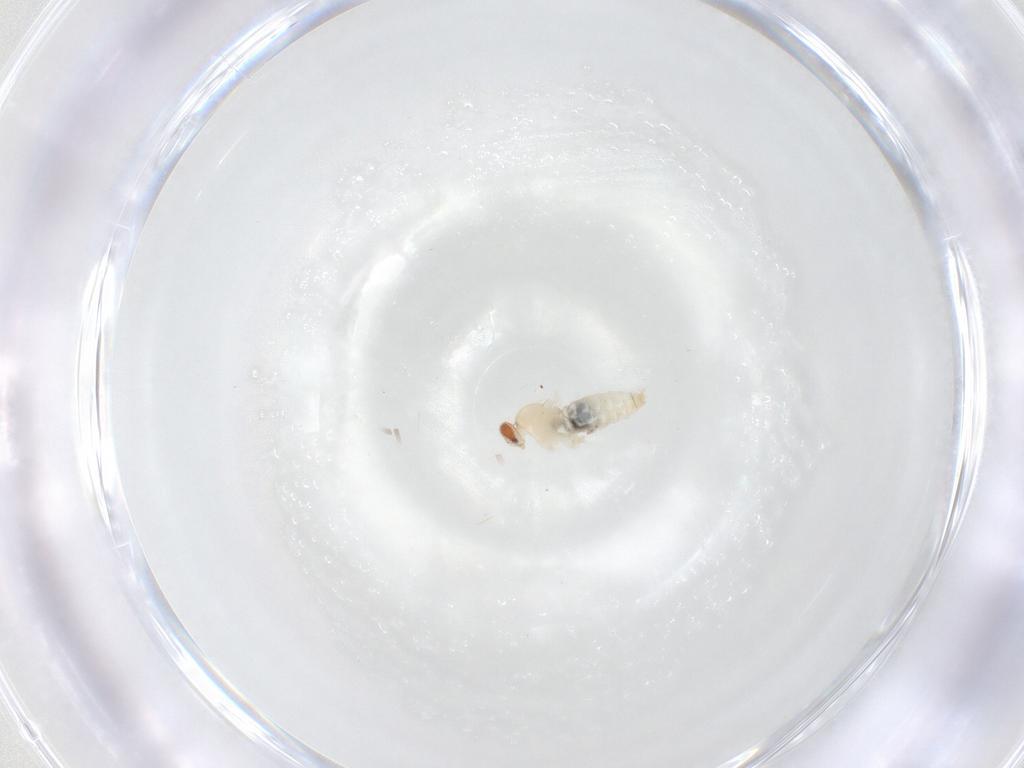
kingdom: Animalia
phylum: Arthropoda
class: Insecta
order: Diptera
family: Cecidomyiidae
